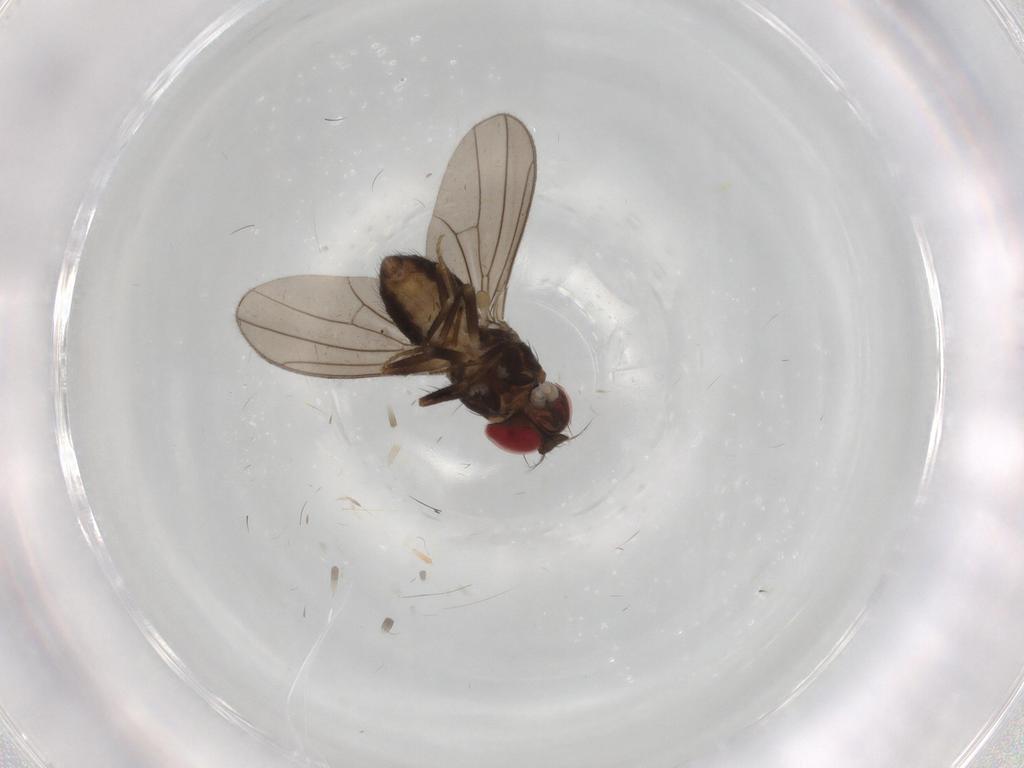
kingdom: Animalia
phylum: Arthropoda
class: Insecta
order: Diptera
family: Drosophilidae
